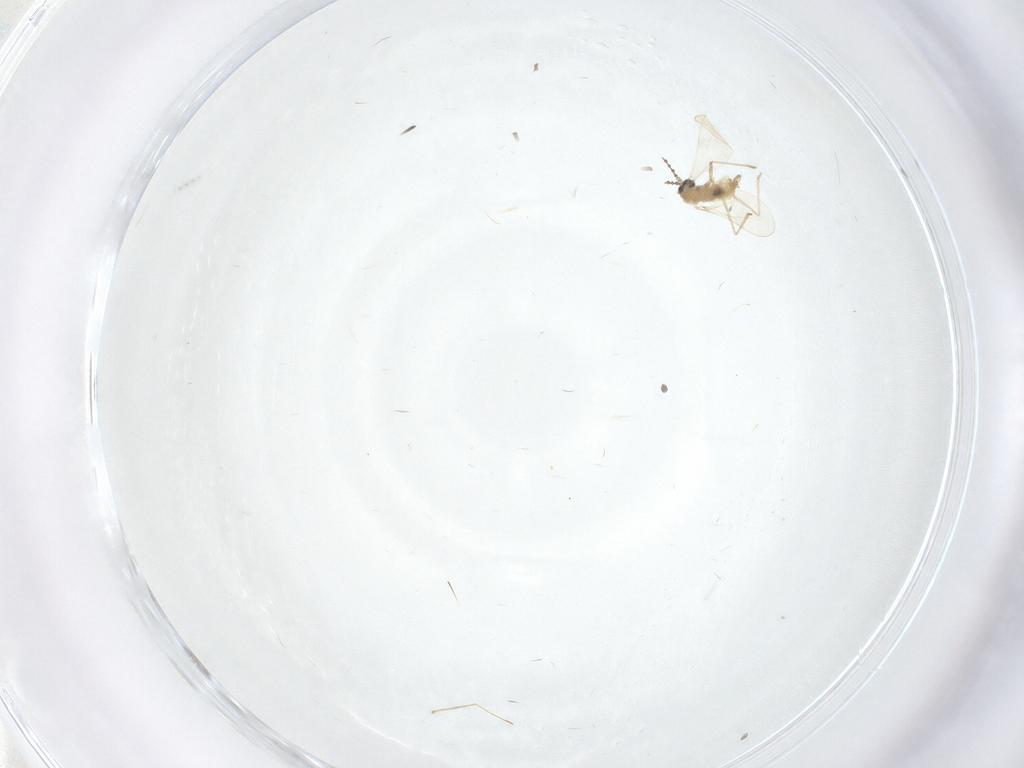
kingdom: Animalia
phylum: Arthropoda
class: Insecta
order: Diptera
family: Cecidomyiidae
